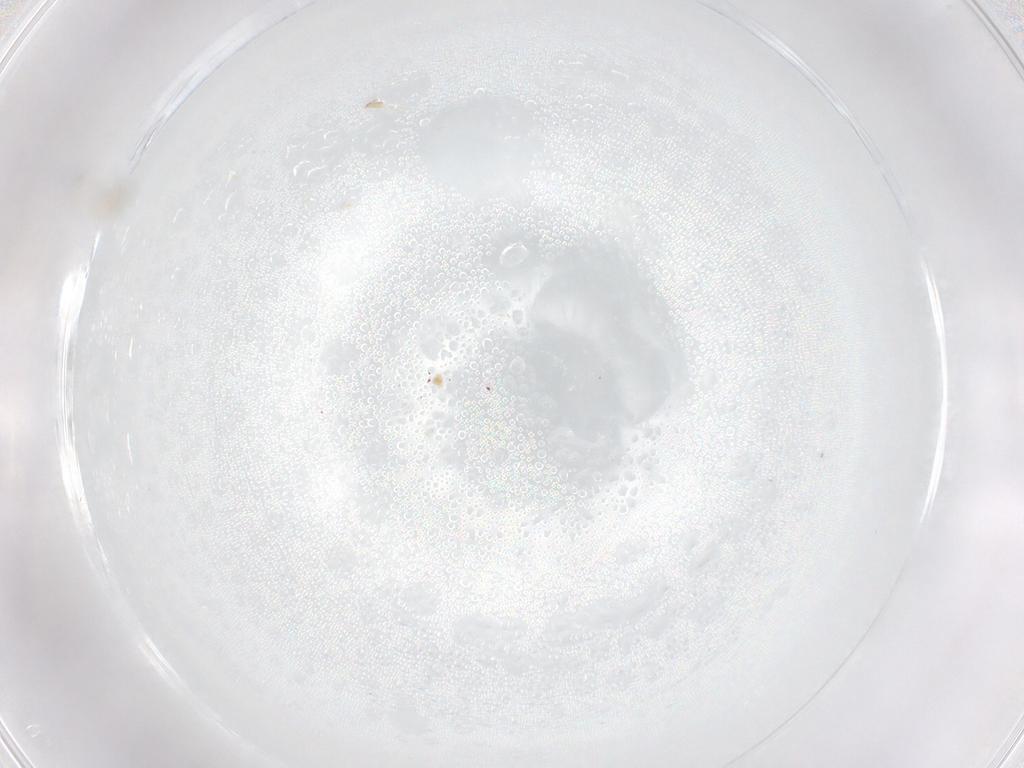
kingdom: Animalia
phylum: Arthropoda
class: Insecta
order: Diptera
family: Phoridae
